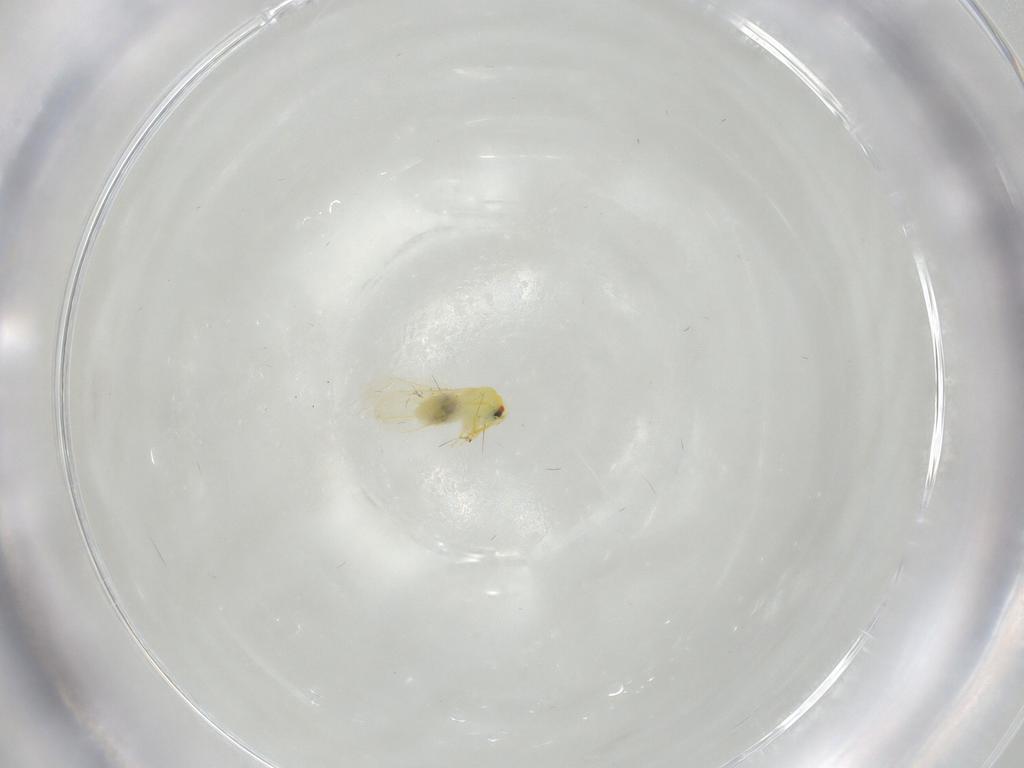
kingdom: Animalia
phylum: Arthropoda
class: Insecta
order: Hemiptera
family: Aleyrodidae
